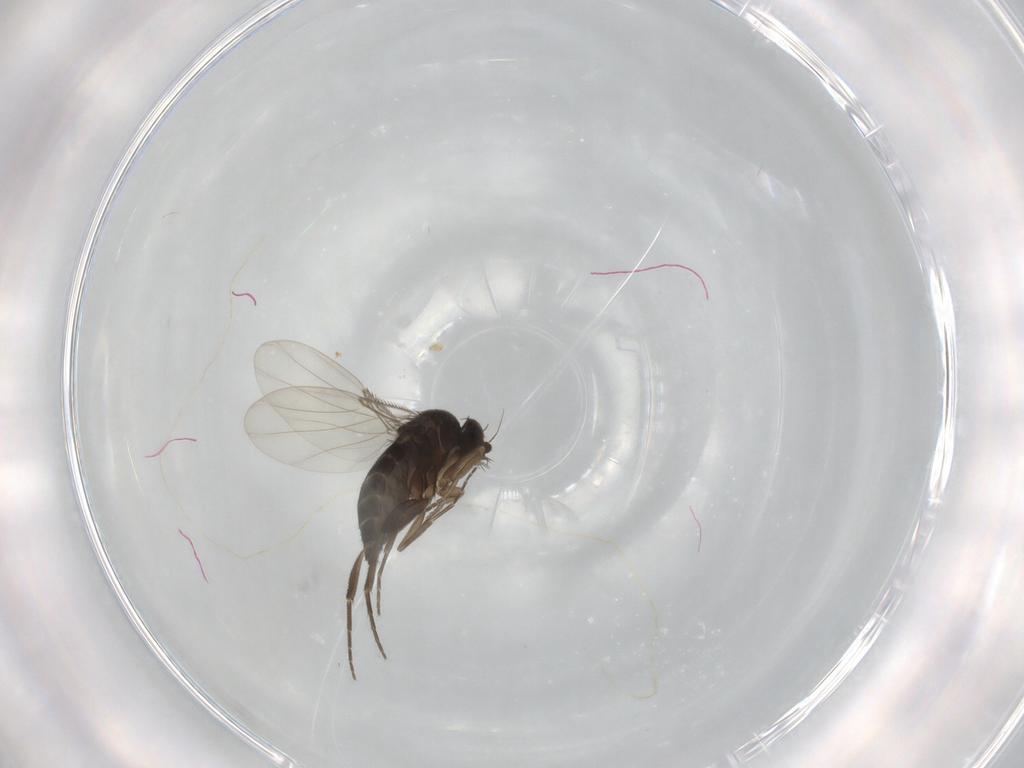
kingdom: Animalia
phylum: Arthropoda
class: Insecta
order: Diptera
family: Phoridae
